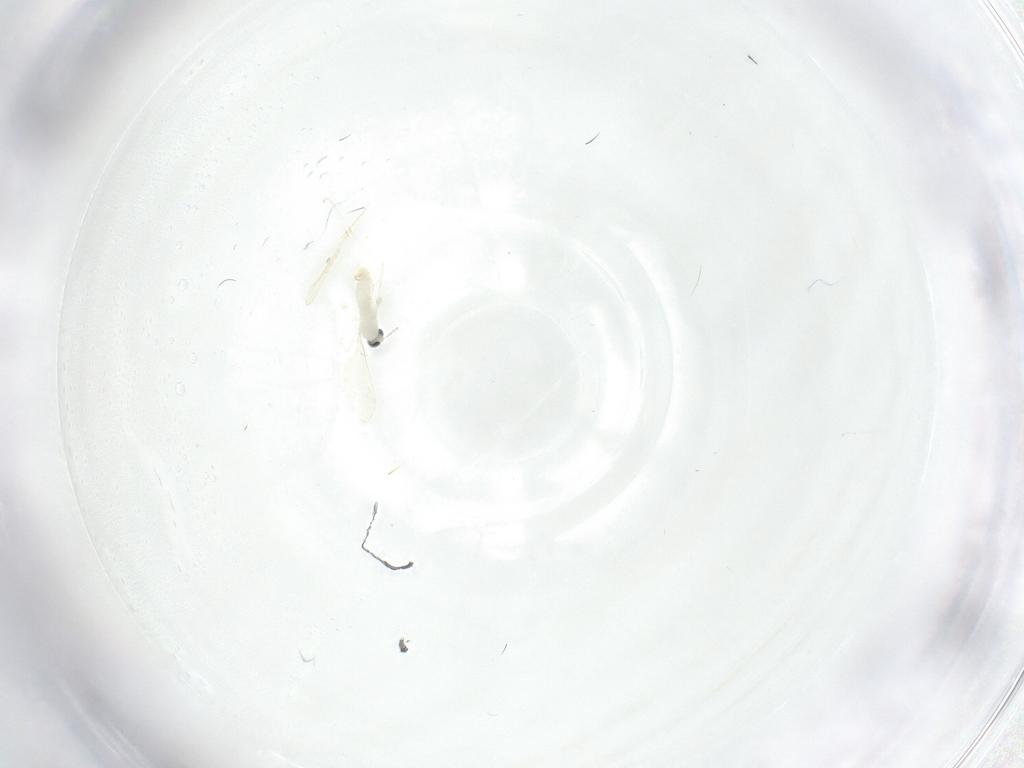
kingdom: Animalia
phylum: Arthropoda
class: Insecta
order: Diptera
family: Cecidomyiidae
